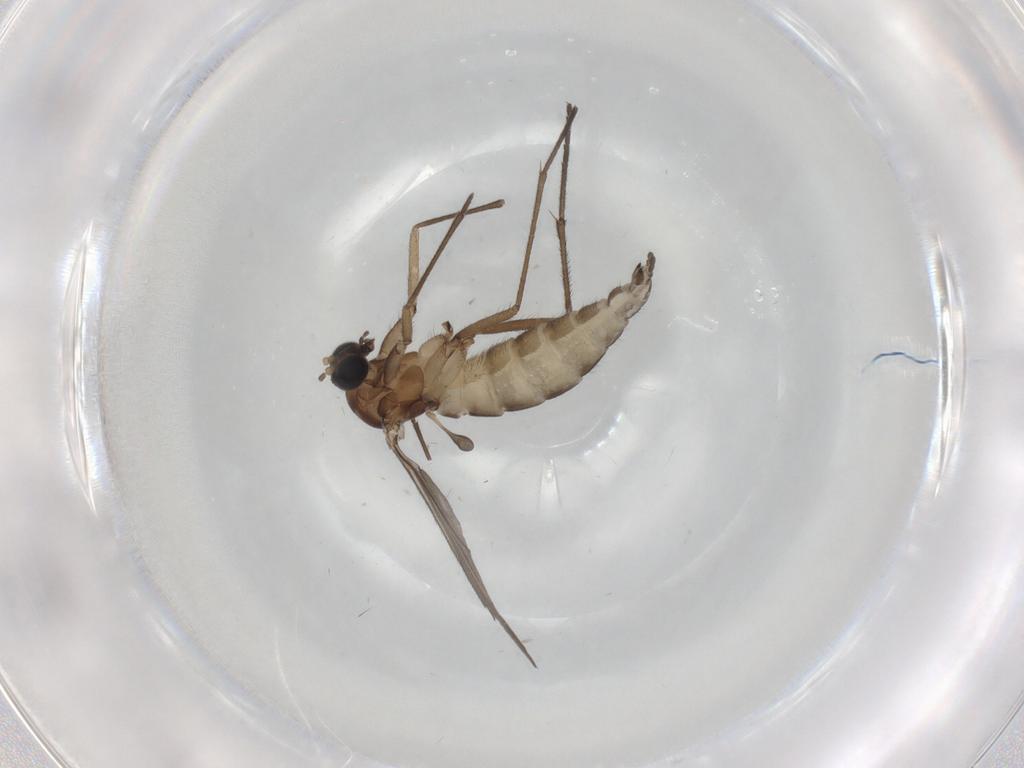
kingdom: Animalia
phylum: Arthropoda
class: Insecta
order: Diptera
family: Sciaridae
